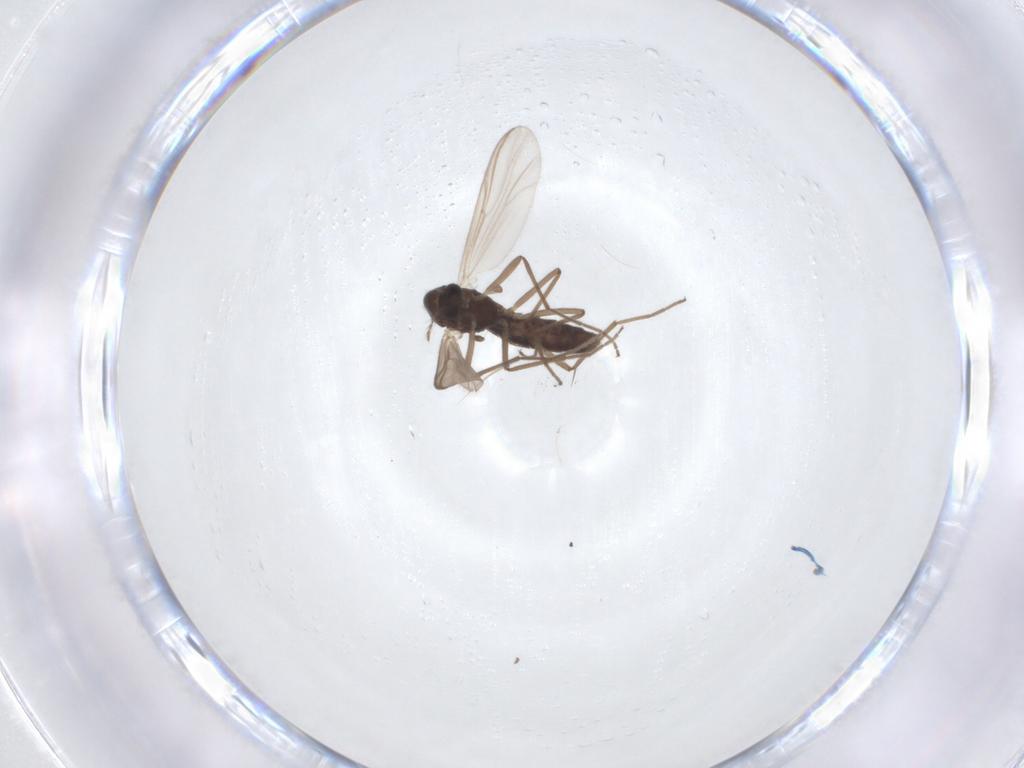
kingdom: Animalia
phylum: Arthropoda
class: Insecta
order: Diptera
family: Chironomidae
